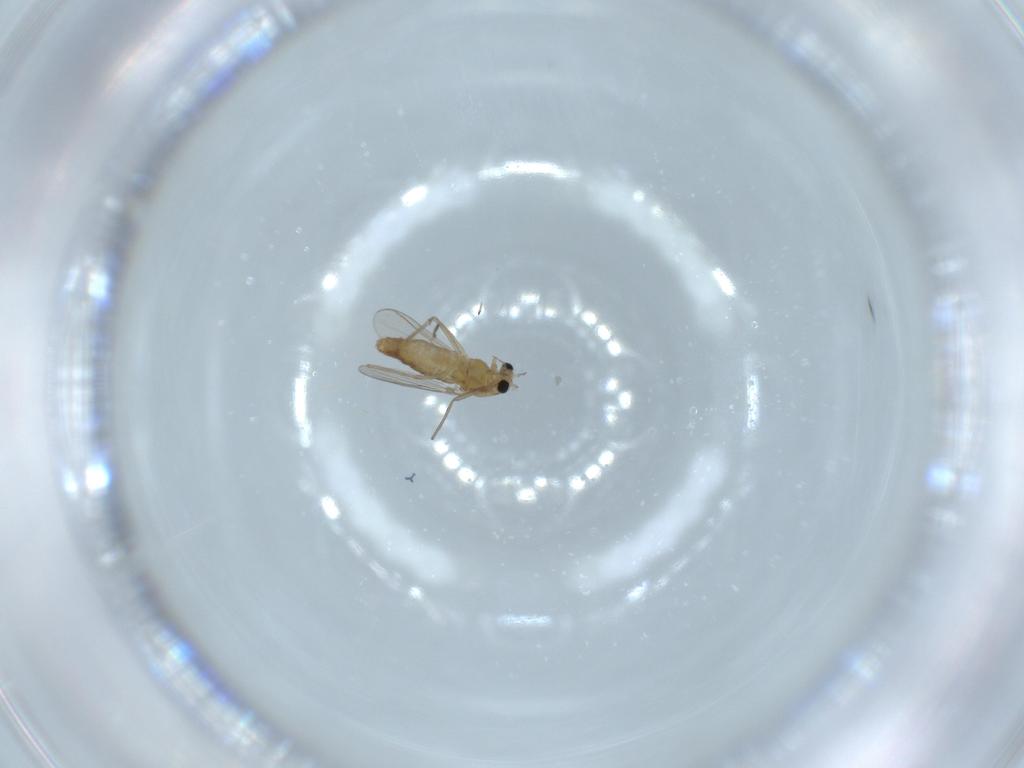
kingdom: Animalia
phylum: Arthropoda
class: Insecta
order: Diptera
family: Chironomidae
